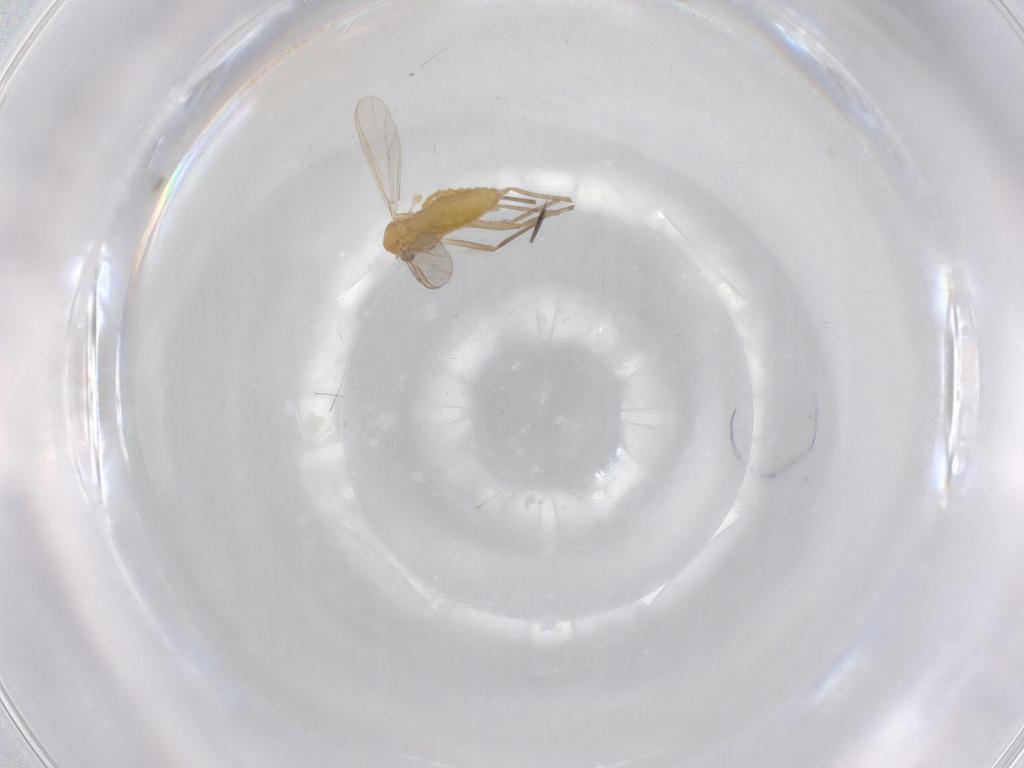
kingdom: Animalia
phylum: Arthropoda
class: Insecta
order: Diptera
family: Chironomidae
